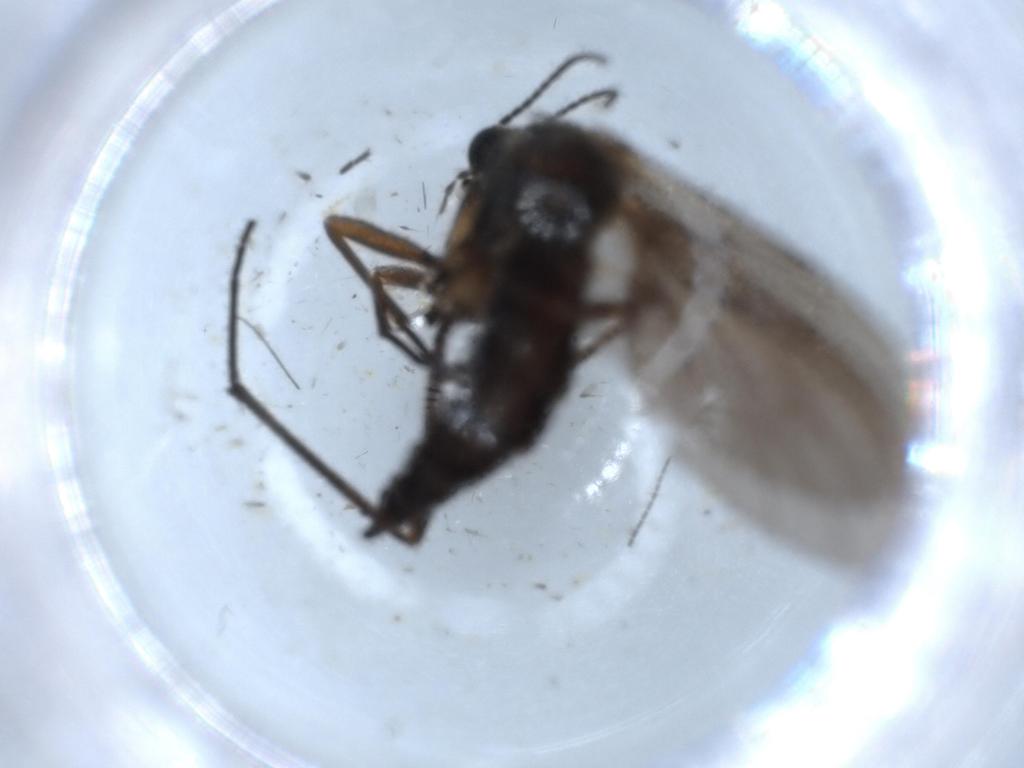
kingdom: Animalia
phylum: Arthropoda
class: Insecta
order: Diptera
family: Sciaridae
